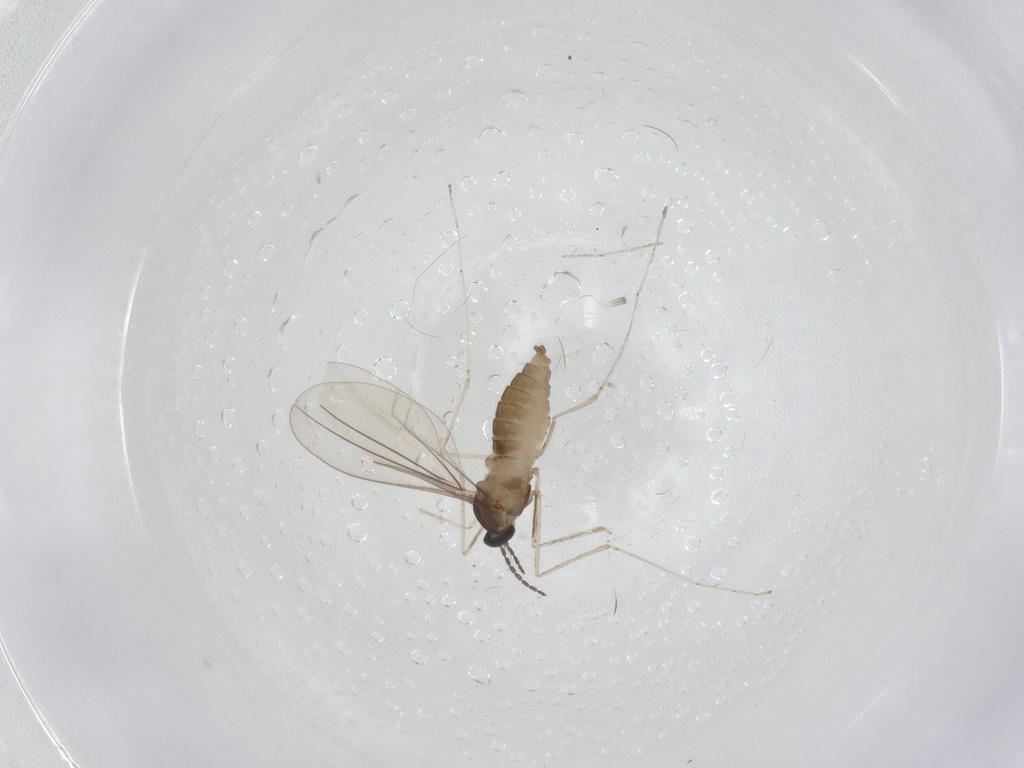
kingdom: Animalia
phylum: Arthropoda
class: Insecta
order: Diptera
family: Cecidomyiidae
